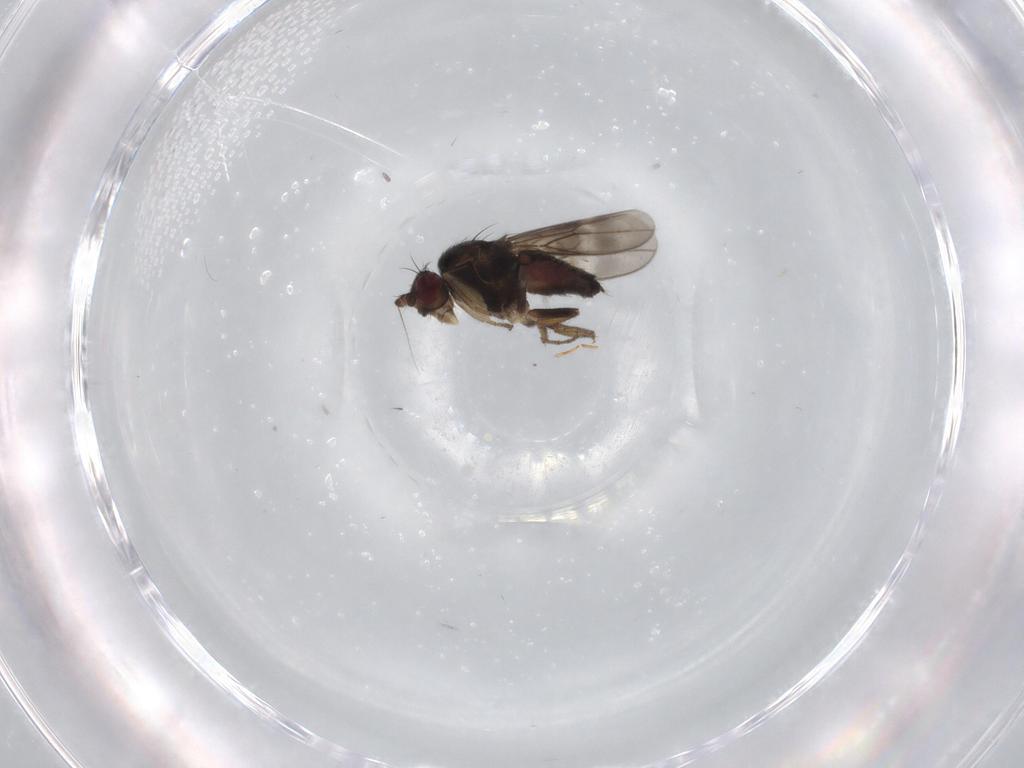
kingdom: Animalia
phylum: Arthropoda
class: Insecta
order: Diptera
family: Sphaeroceridae
